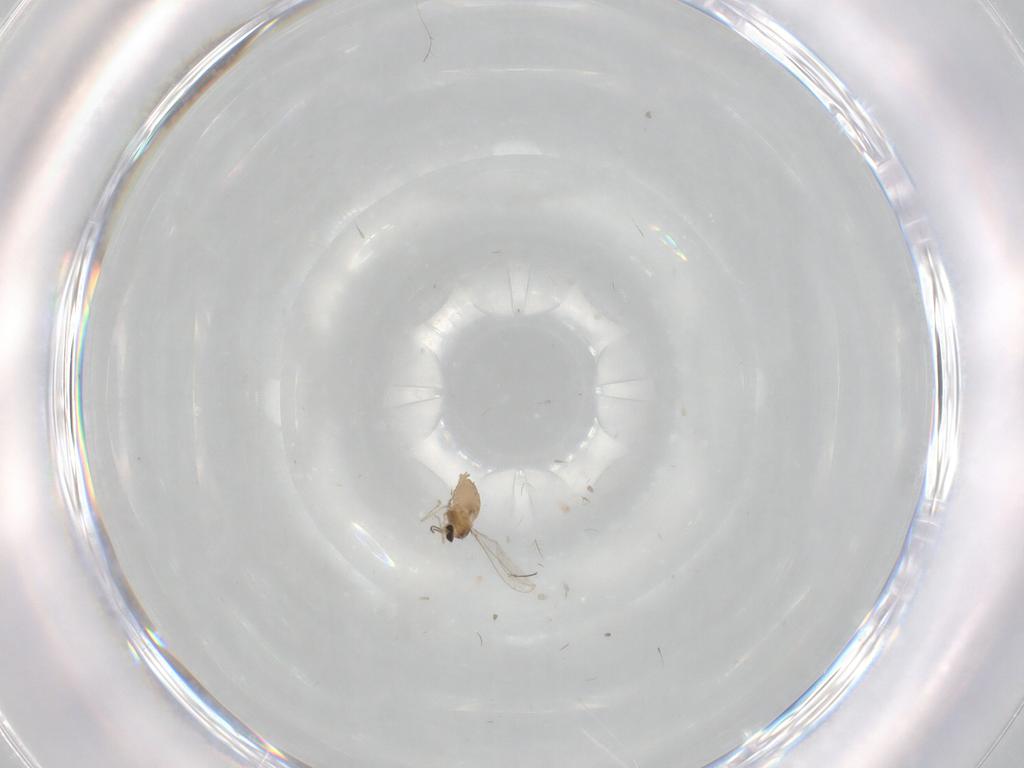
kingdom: Animalia
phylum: Arthropoda
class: Insecta
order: Diptera
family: Cecidomyiidae
